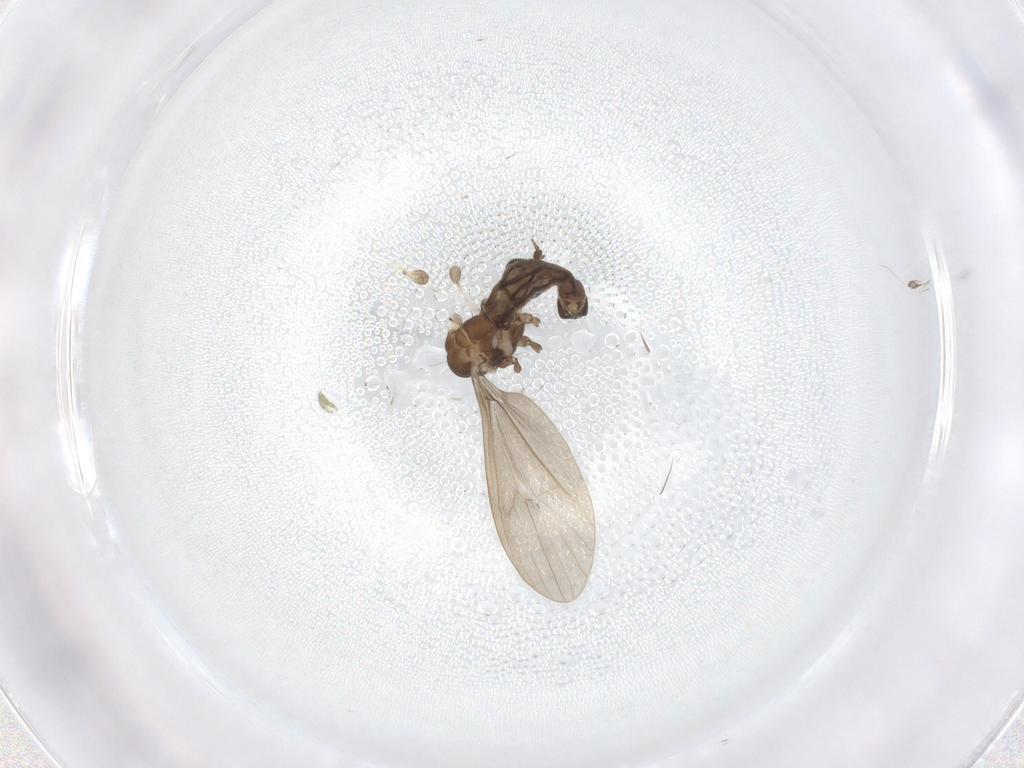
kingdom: Animalia
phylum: Arthropoda
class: Insecta
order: Diptera
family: Limoniidae
